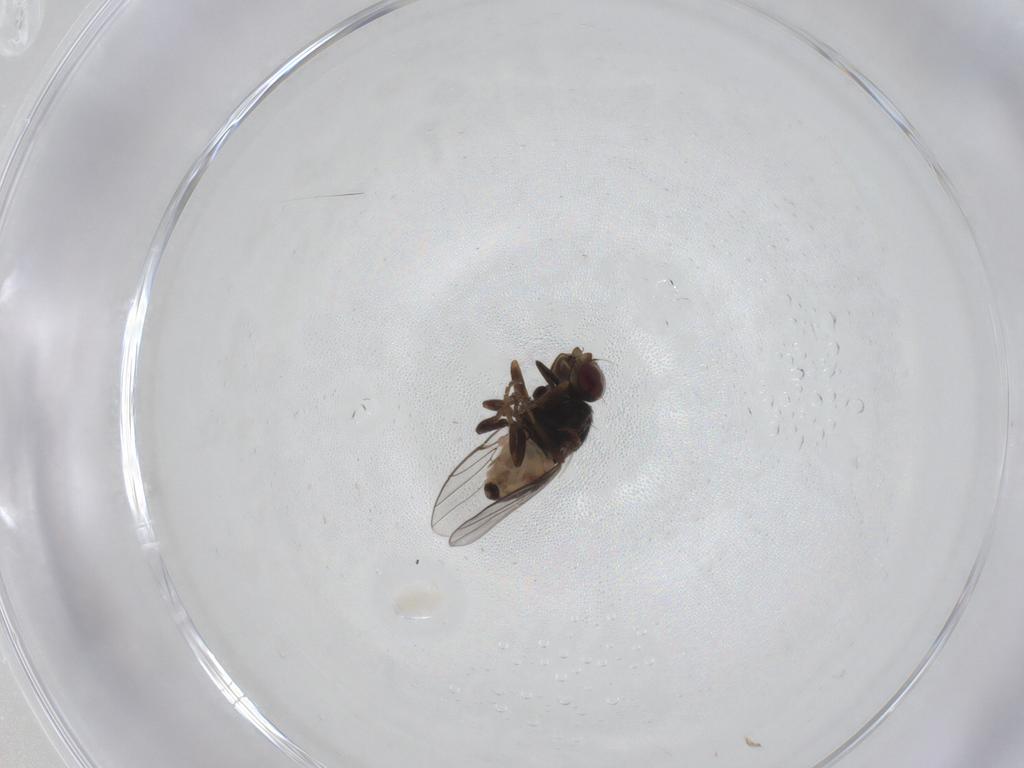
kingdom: Animalia
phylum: Arthropoda
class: Insecta
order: Diptera
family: Chloropidae
